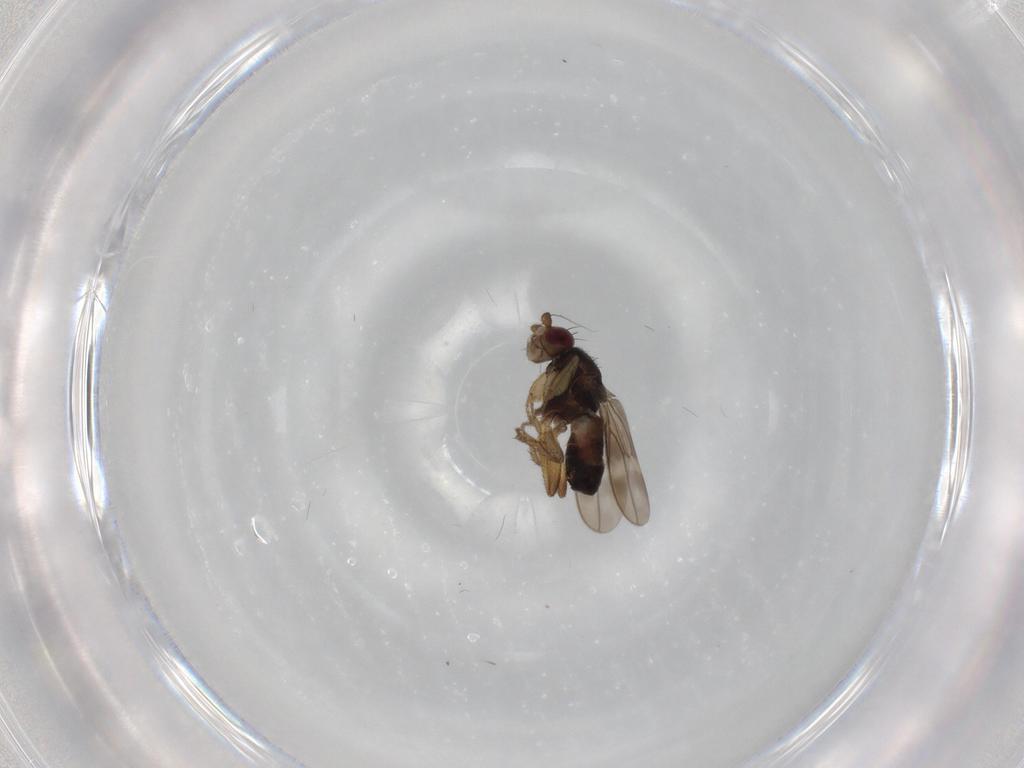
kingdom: Animalia
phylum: Arthropoda
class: Insecta
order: Diptera
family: Sphaeroceridae
